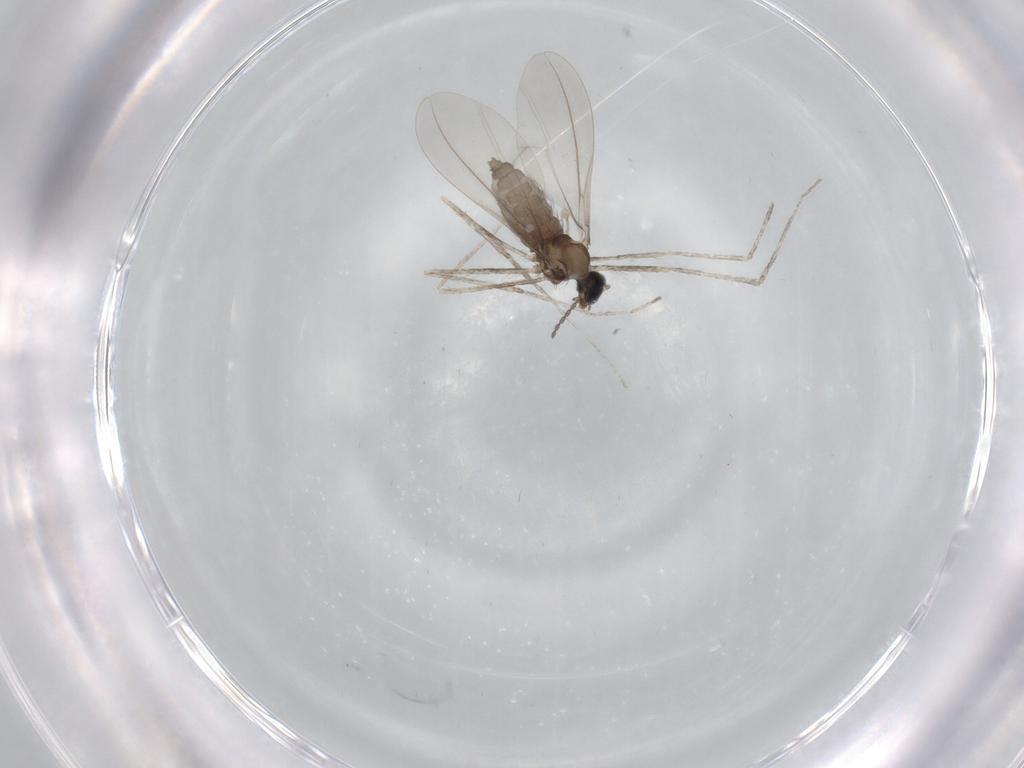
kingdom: Animalia
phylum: Arthropoda
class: Insecta
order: Diptera
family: Cecidomyiidae
